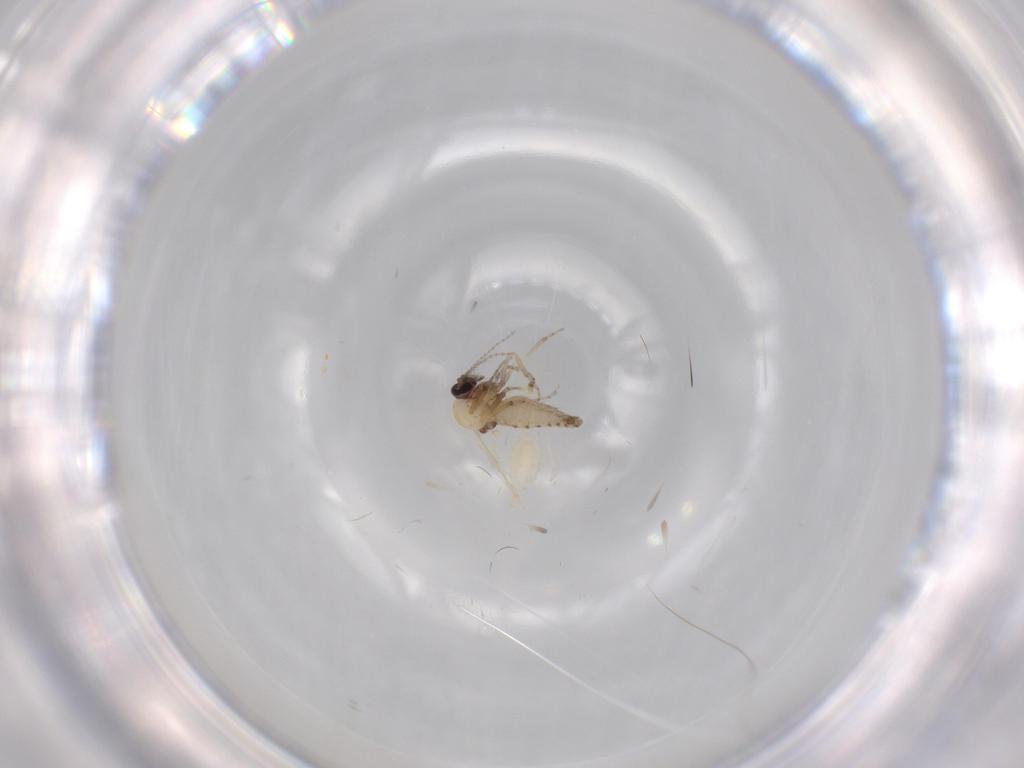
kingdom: Animalia
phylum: Arthropoda
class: Insecta
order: Diptera
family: Ceratopogonidae
